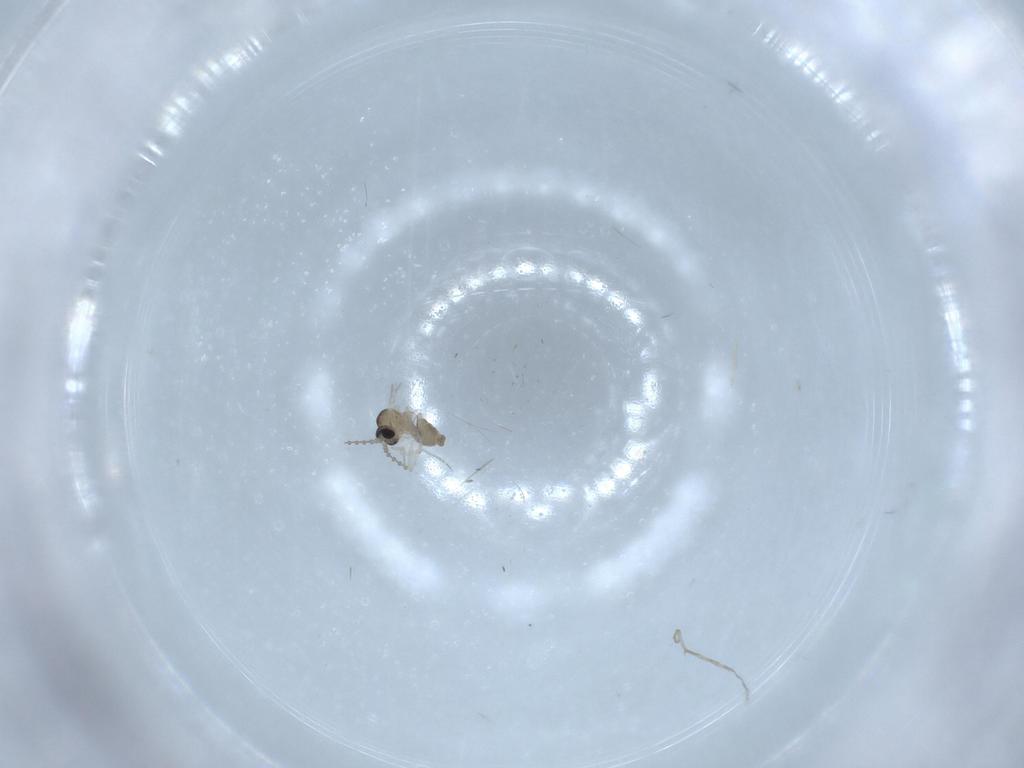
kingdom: Animalia
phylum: Arthropoda
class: Insecta
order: Diptera
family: Cecidomyiidae
